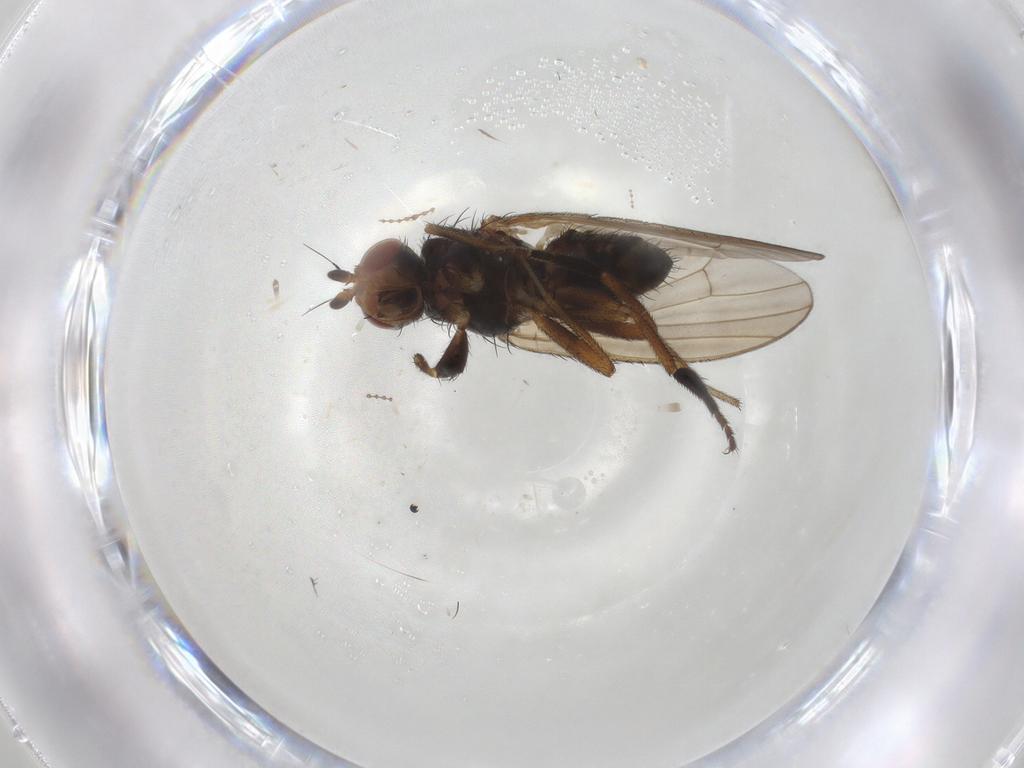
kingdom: Animalia
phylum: Arthropoda
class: Insecta
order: Diptera
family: Heleomyzidae
